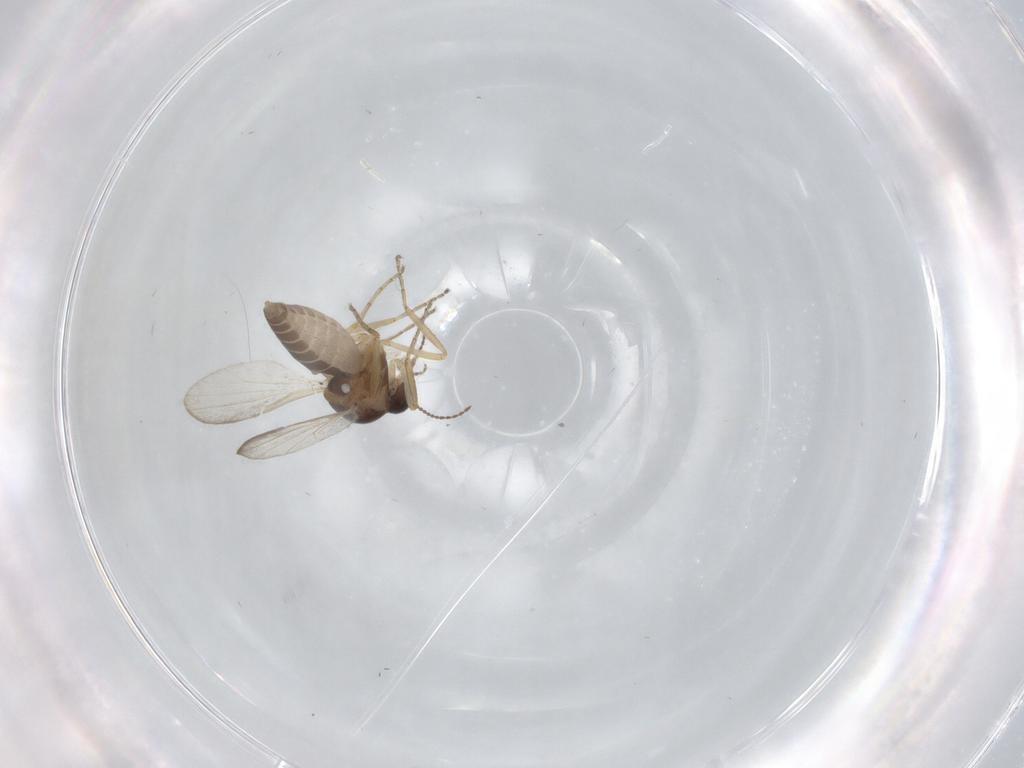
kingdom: Animalia
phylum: Arthropoda
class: Insecta
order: Diptera
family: Ceratopogonidae
